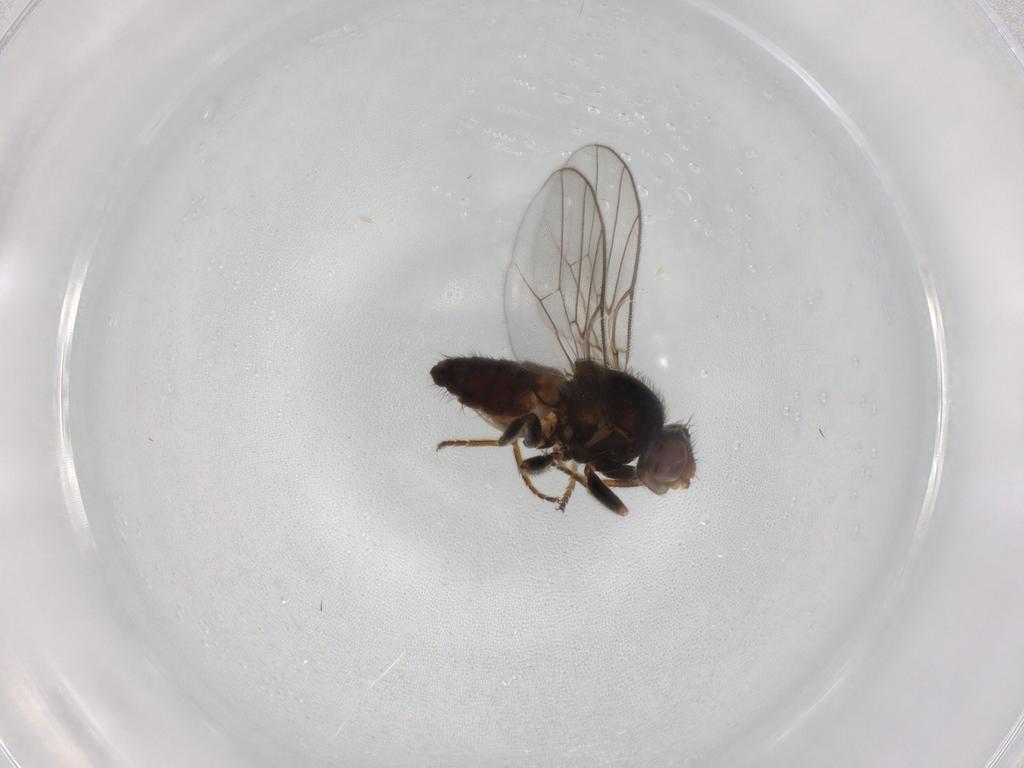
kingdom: Animalia
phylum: Arthropoda
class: Insecta
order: Diptera
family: Chloropidae
